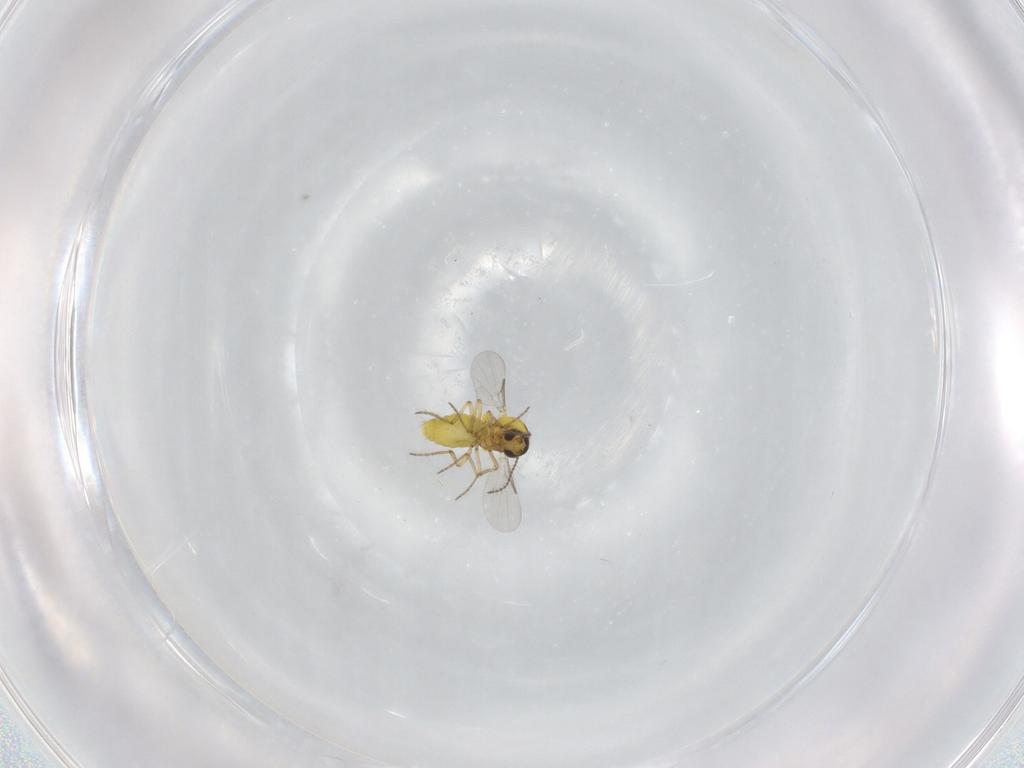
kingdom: Animalia
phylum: Arthropoda
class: Insecta
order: Diptera
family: Ceratopogonidae
